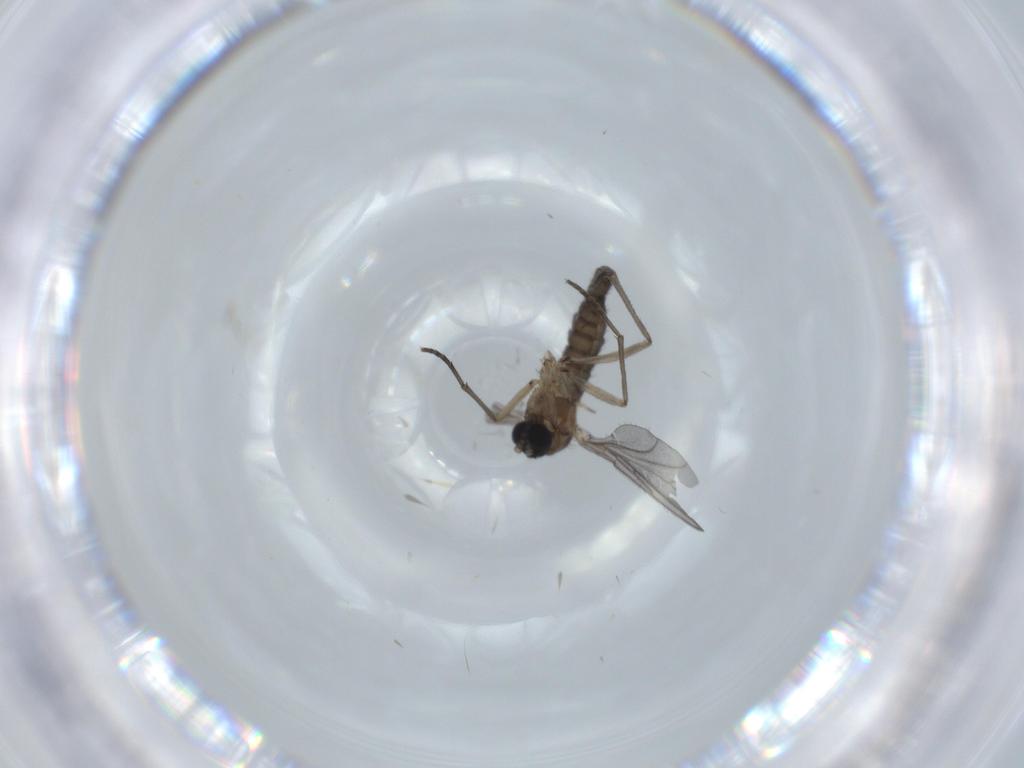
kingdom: Animalia
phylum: Arthropoda
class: Insecta
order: Diptera
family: Sciaridae
